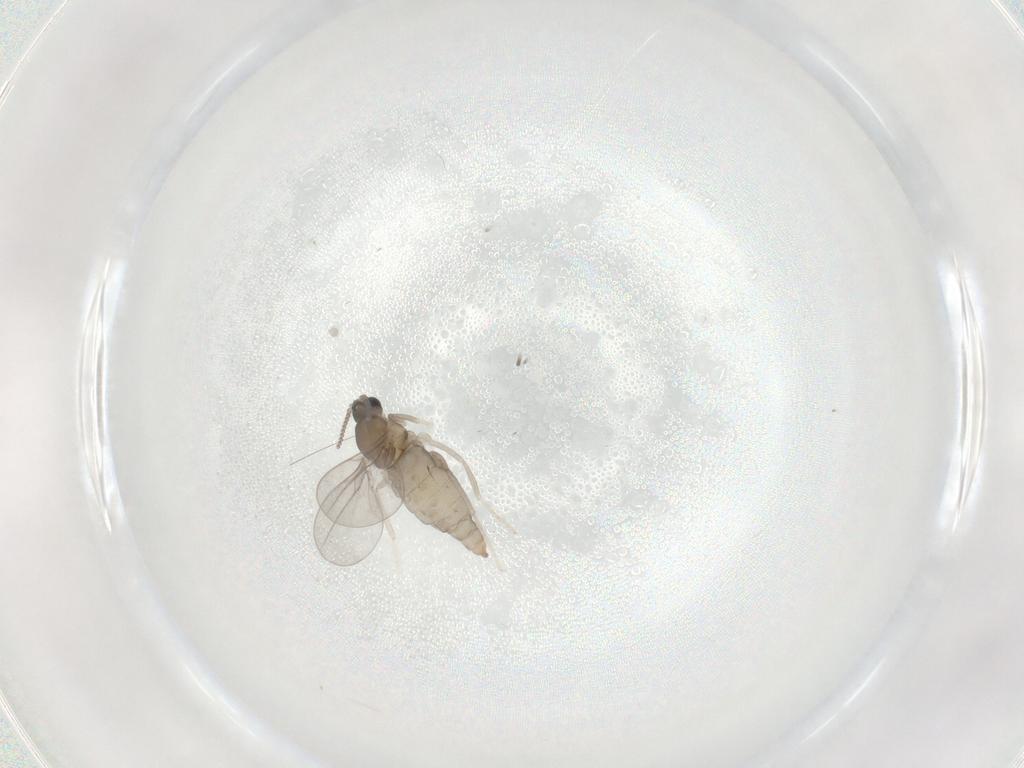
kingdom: Animalia
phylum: Arthropoda
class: Insecta
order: Diptera
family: Cecidomyiidae
